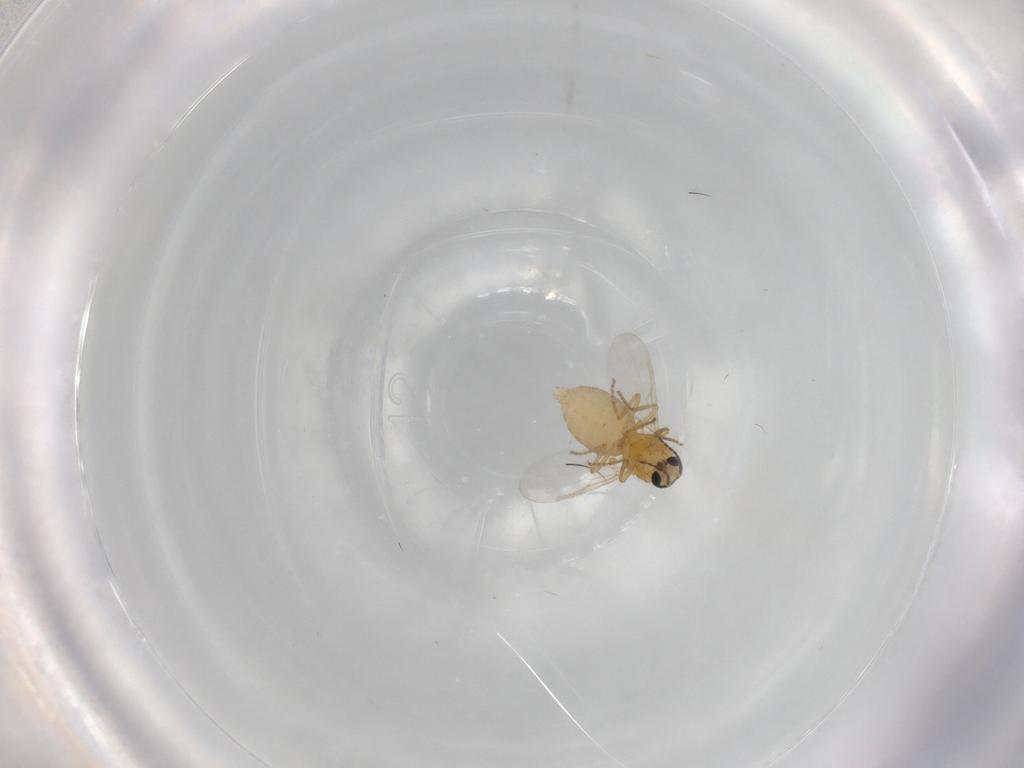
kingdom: Animalia
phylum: Arthropoda
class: Insecta
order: Diptera
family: Ceratopogonidae
